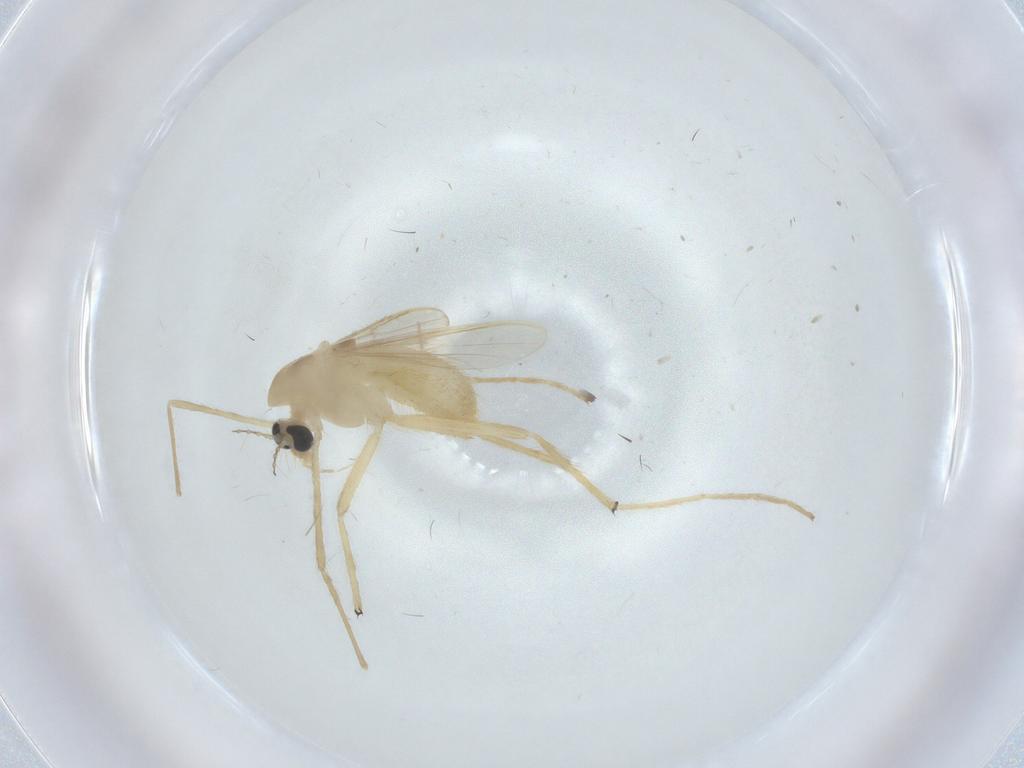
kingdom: Animalia
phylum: Arthropoda
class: Insecta
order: Diptera
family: Chironomidae
